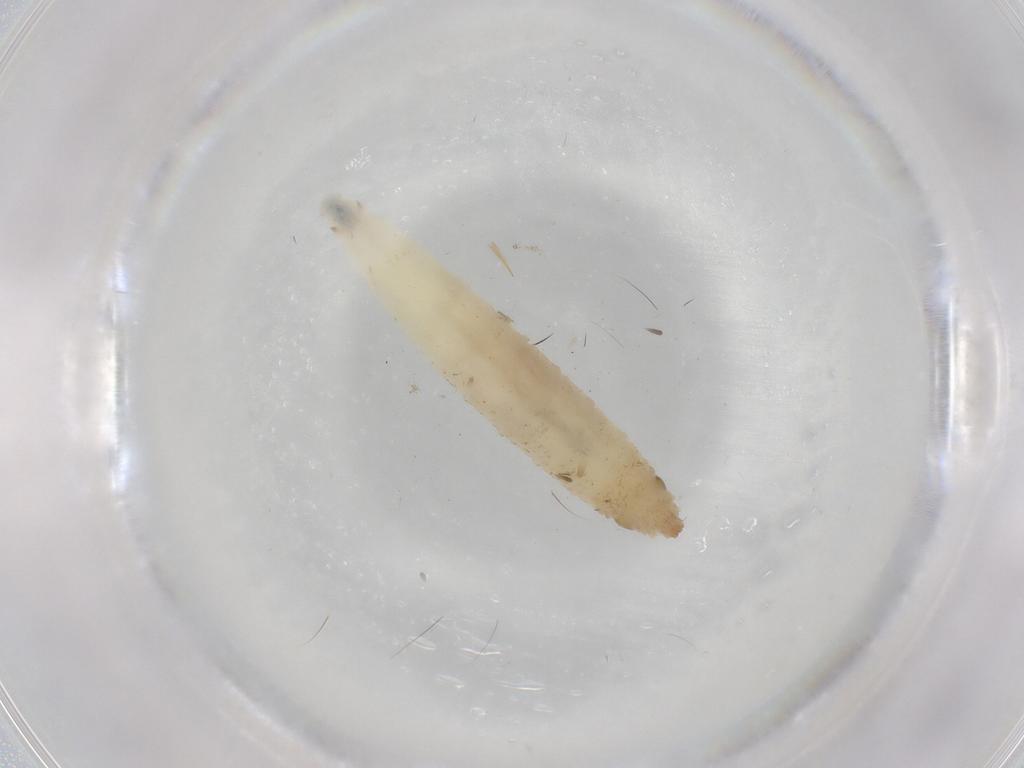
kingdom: Animalia
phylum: Arthropoda
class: Insecta
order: Diptera
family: Drosophilidae
